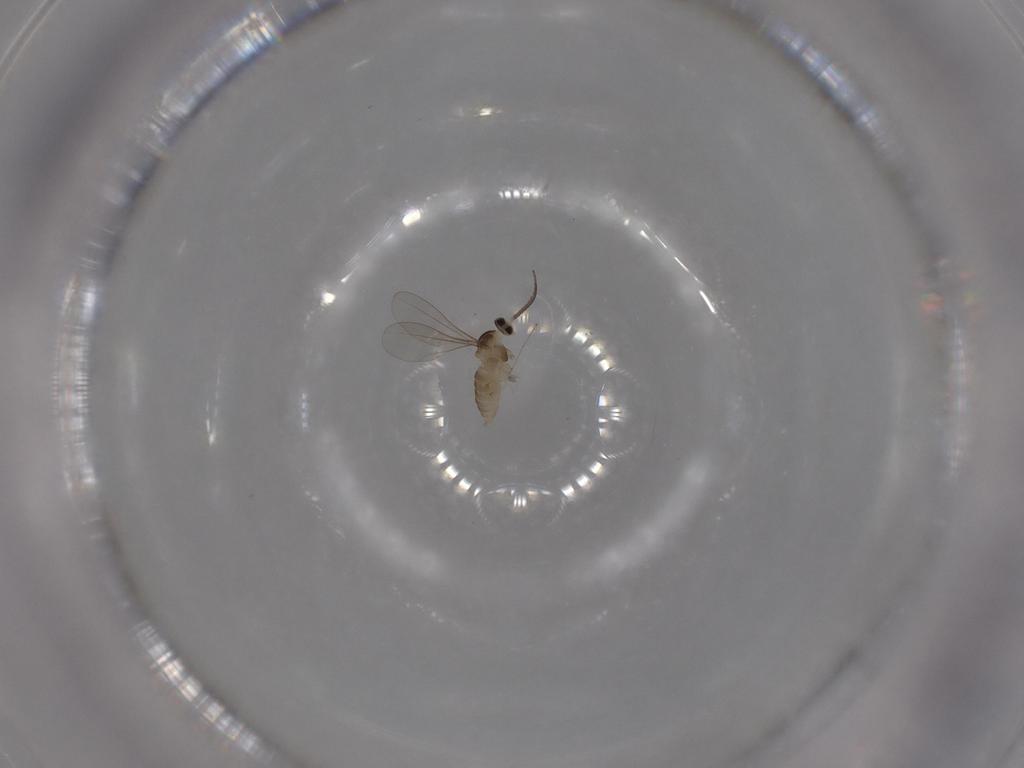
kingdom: Animalia
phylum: Arthropoda
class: Insecta
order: Diptera
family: Cecidomyiidae
